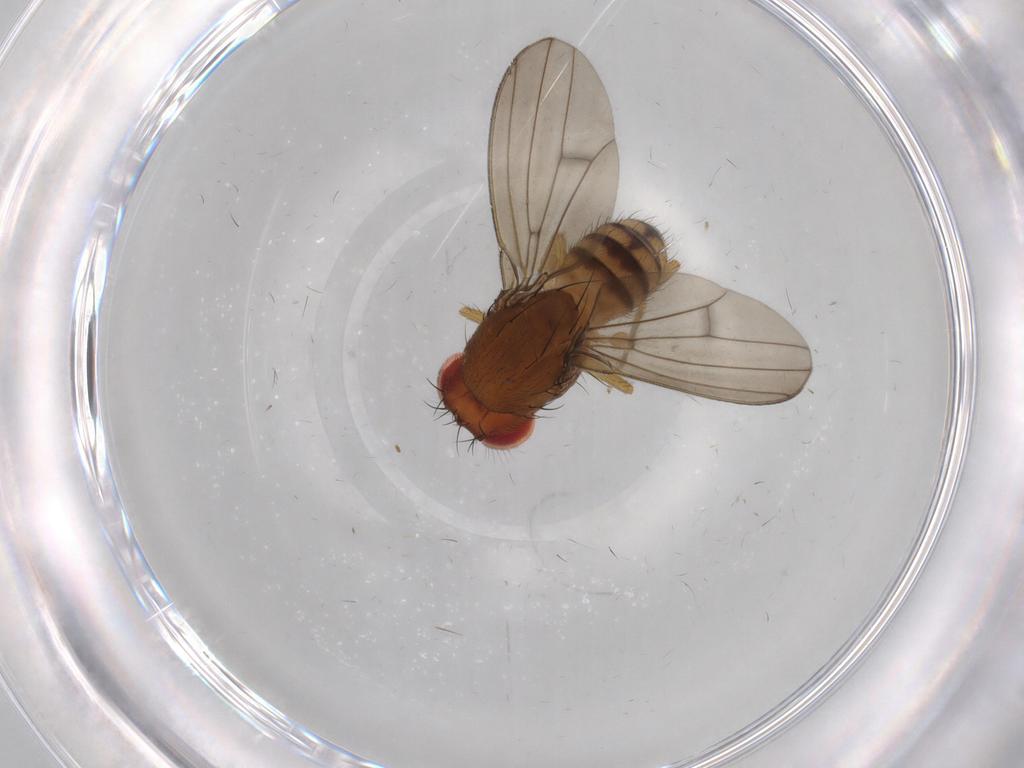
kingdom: Animalia
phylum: Arthropoda
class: Insecta
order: Diptera
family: Drosophilidae
